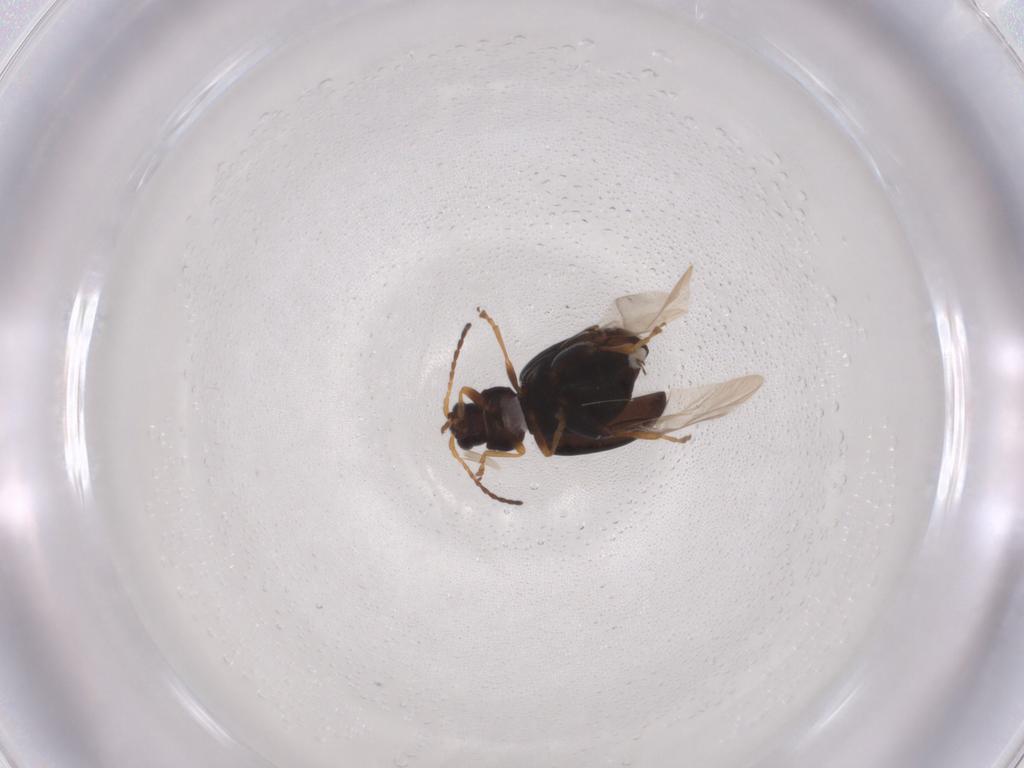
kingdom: Animalia
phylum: Arthropoda
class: Insecta
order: Coleoptera
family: Chrysomelidae
